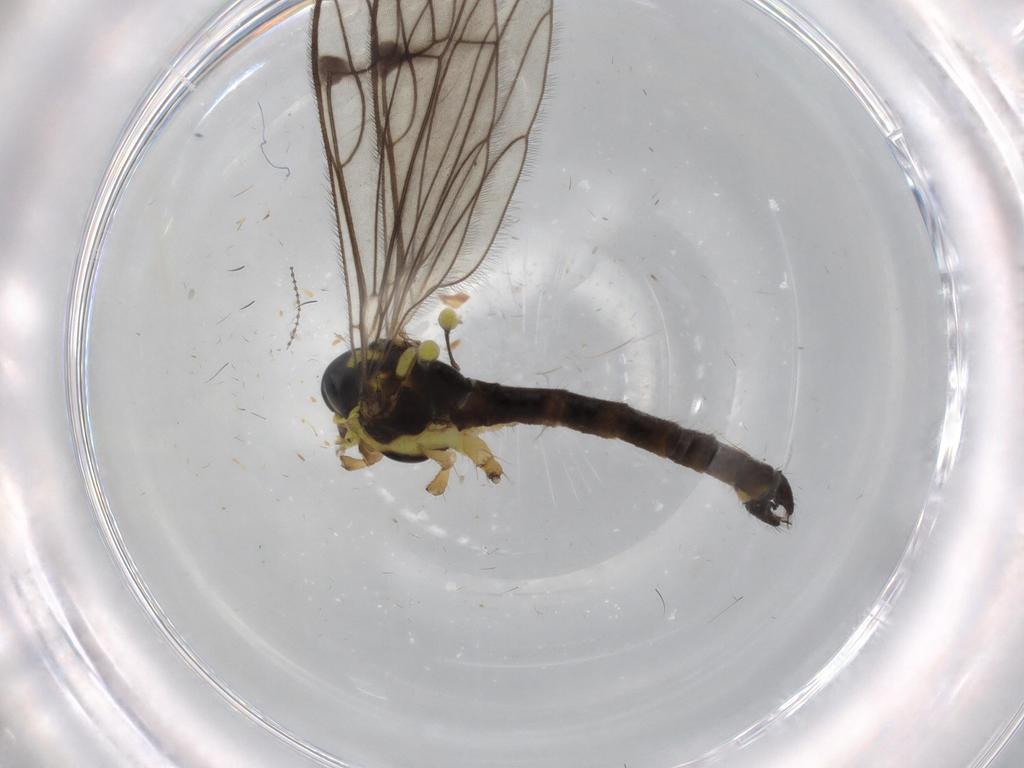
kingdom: Animalia
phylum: Arthropoda
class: Insecta
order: Diptera
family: Limoniidae
